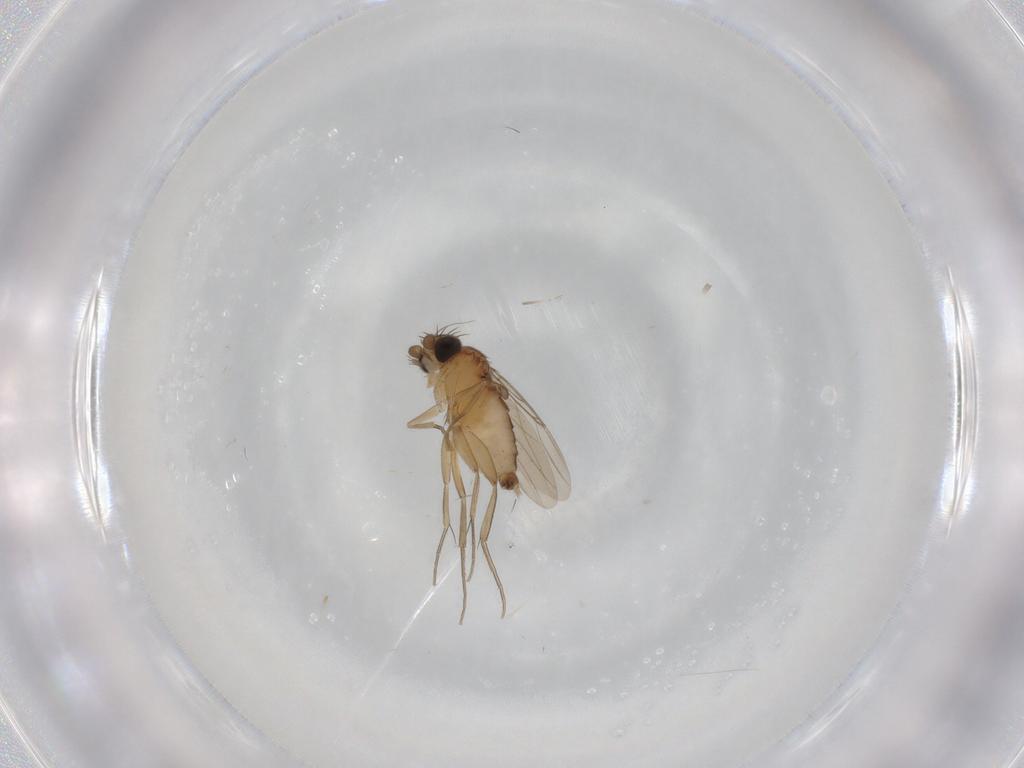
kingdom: Animalia
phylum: Arthropoda
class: Insecta
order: Diptera
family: Phoridae
